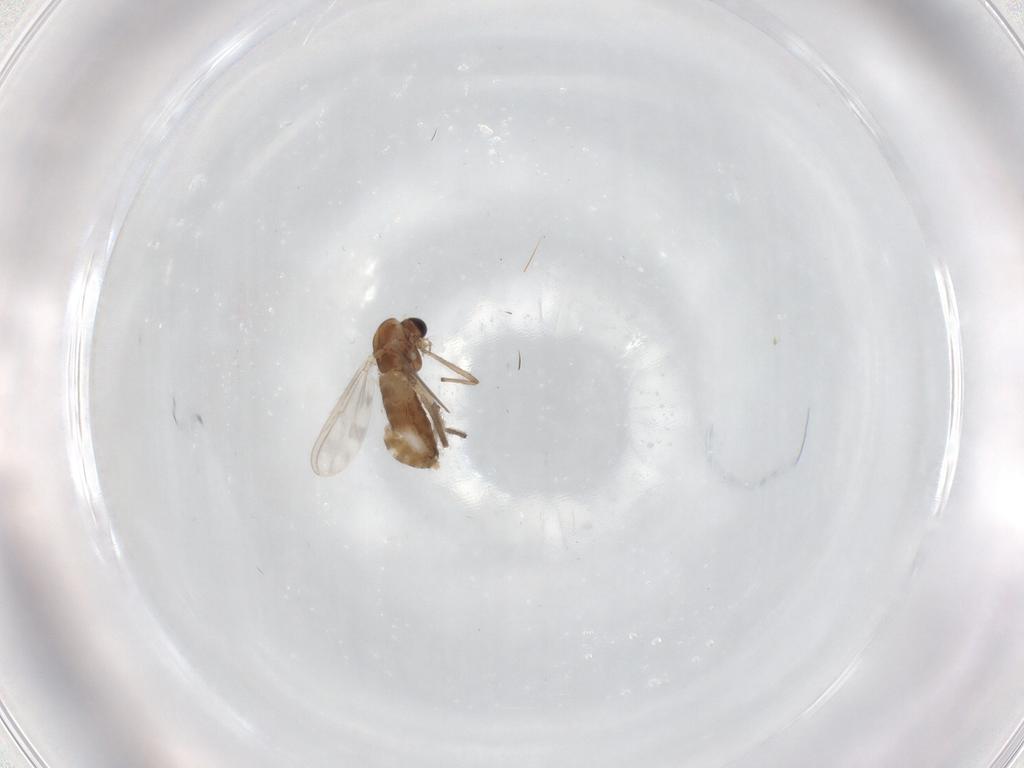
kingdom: Animalia
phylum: Arthropoda
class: Insecta
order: Diptera
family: Chironomidae
